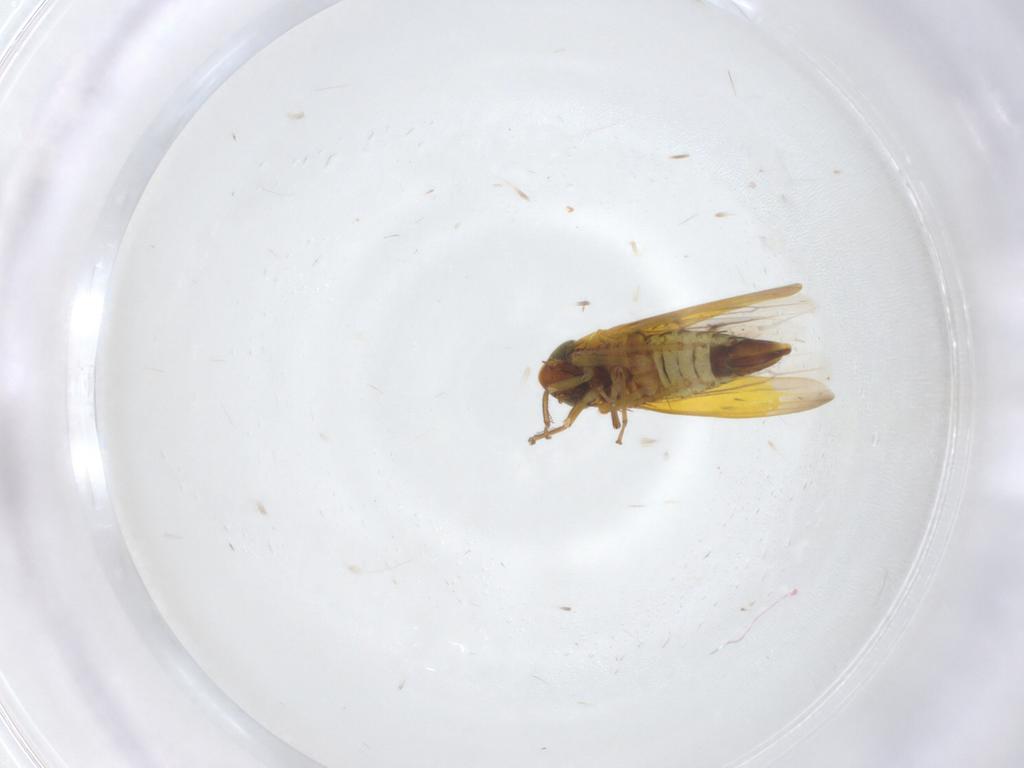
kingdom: Animalia
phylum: Arthropoda
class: Insecta
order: Hemiptera
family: Cicadellidae
